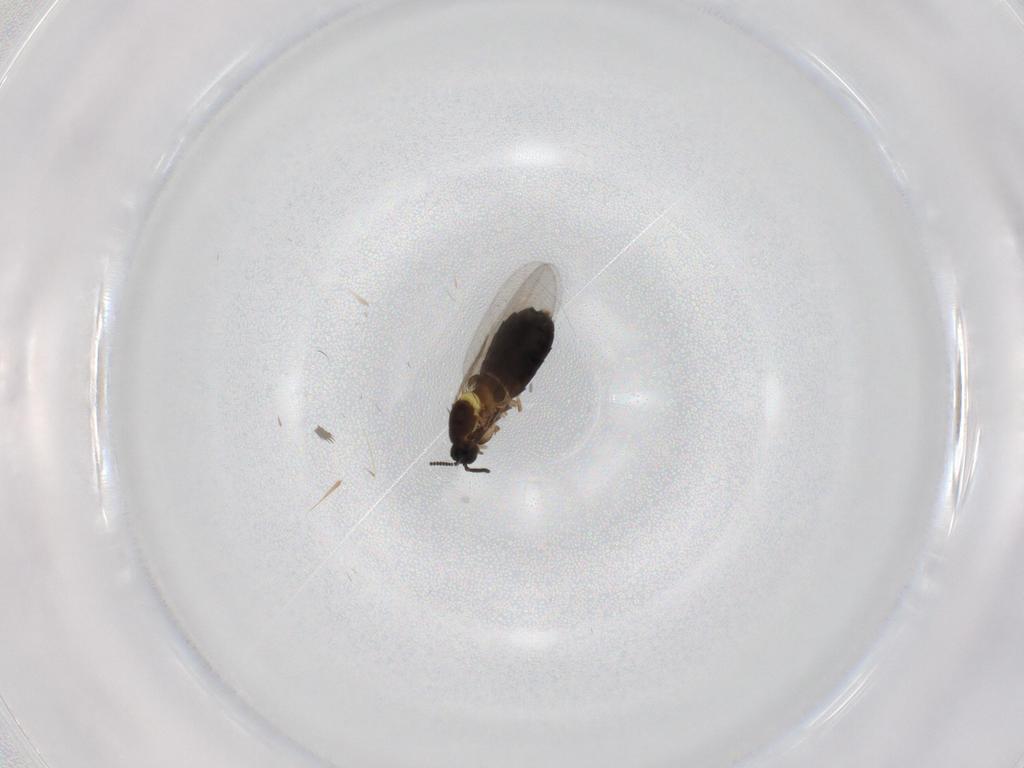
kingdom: Animalia
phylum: Arthropoda
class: Insecta
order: Diptera
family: Scatopsidae
